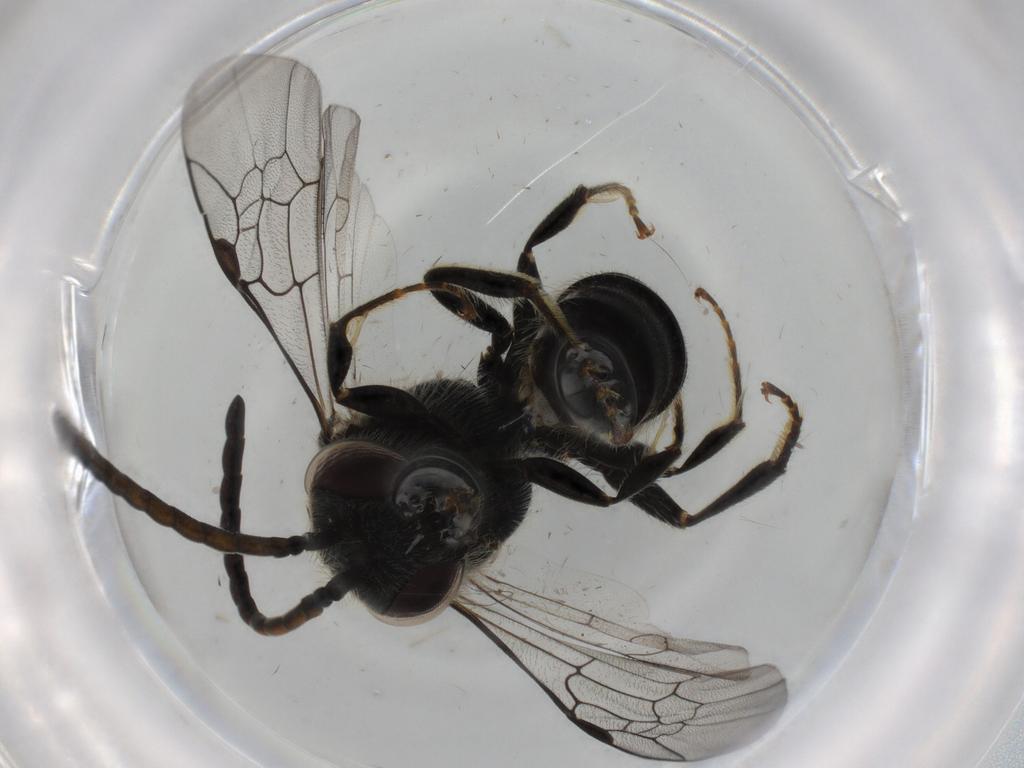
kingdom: Animalia
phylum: Arthropoda
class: Insecta
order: Hymenoptera
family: Halictidae
